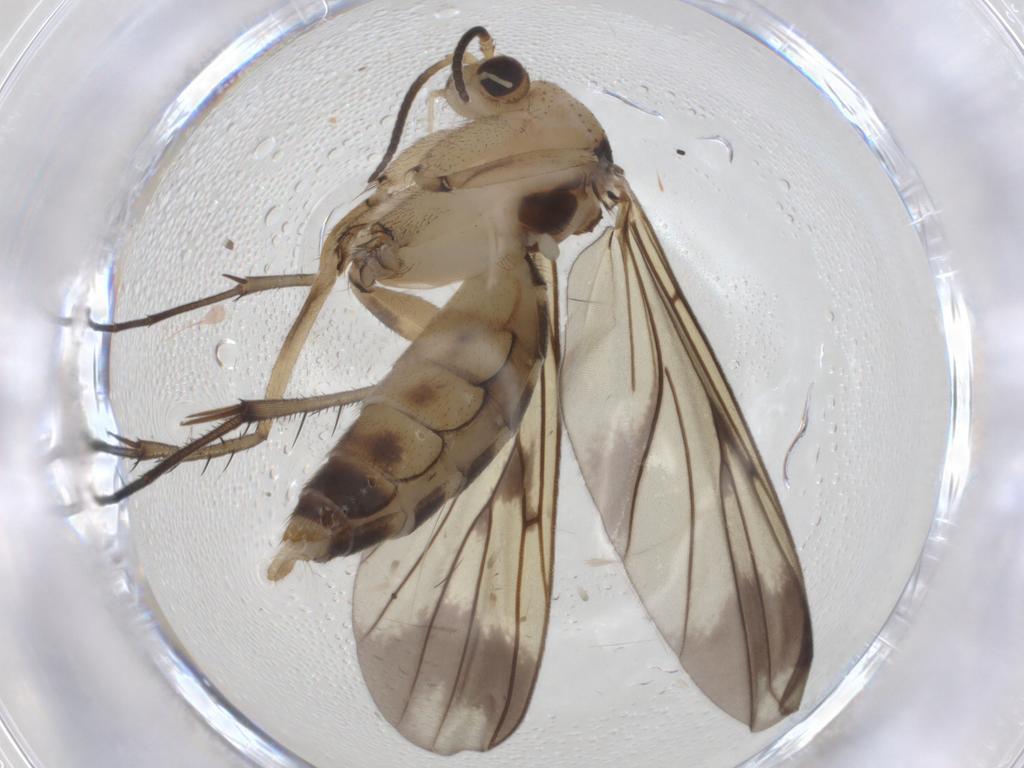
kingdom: Animalia
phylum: Arthropoda
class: Insecta
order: Diptera
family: Mycetophilidae
